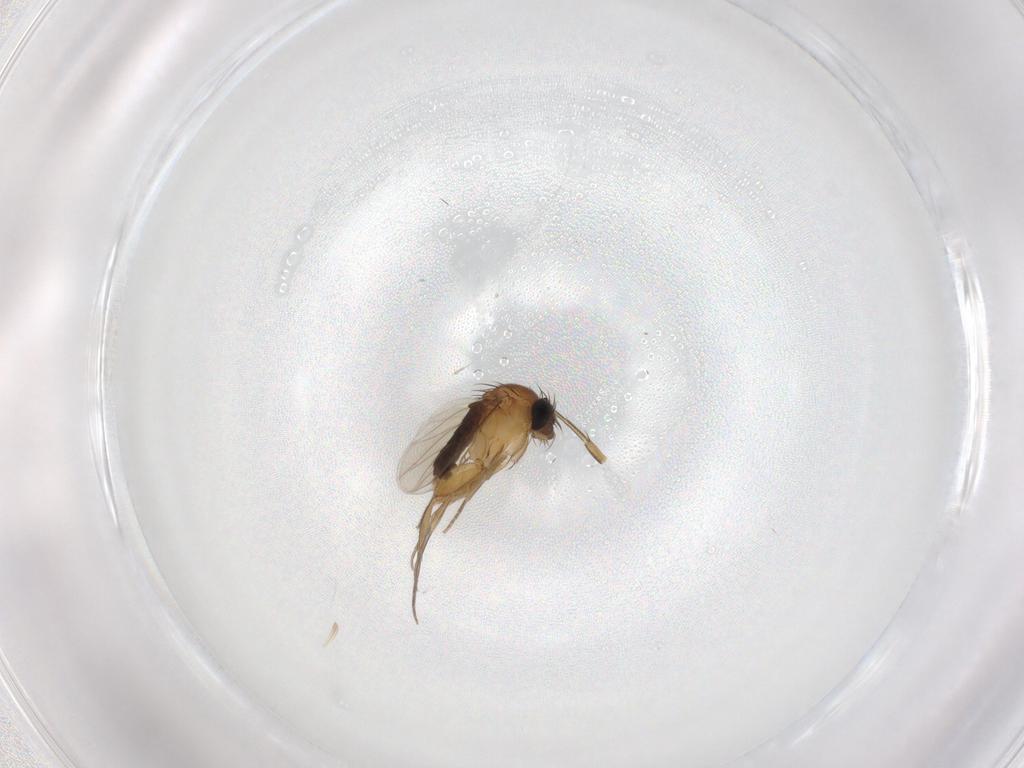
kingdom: Animalia
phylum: Arthropoda
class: Insecta
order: Diptera
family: Phoridae
